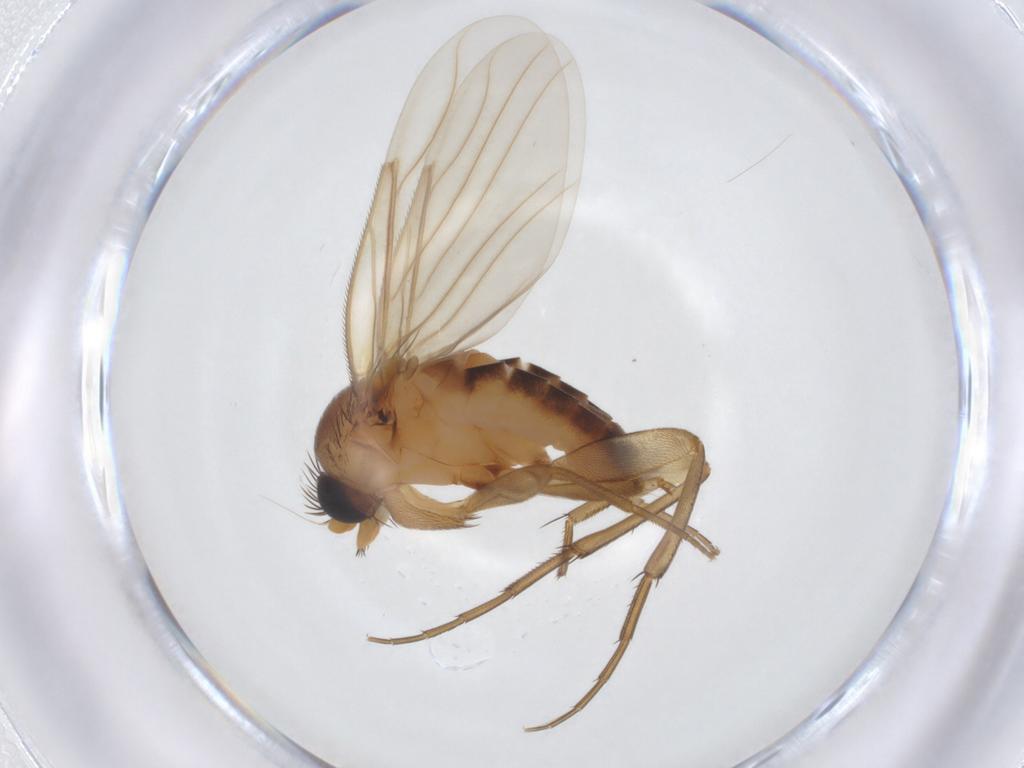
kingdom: Animalia
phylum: Arthropoda
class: Insecta
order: Diptera
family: Phoridae
